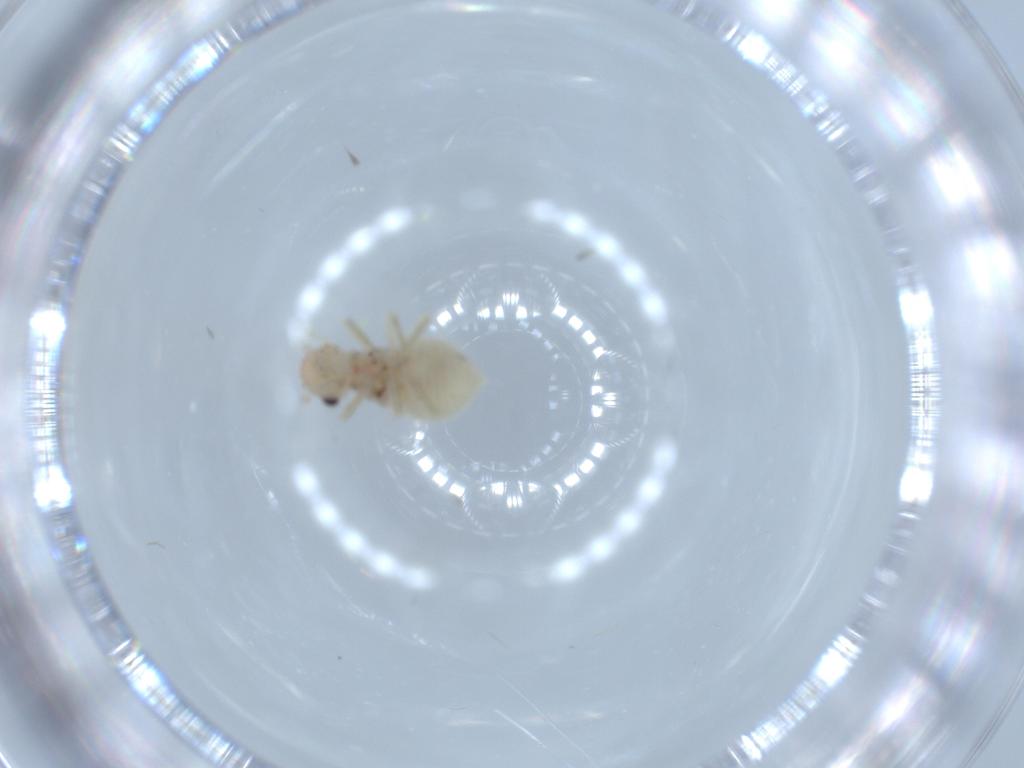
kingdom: Animalia
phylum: Arthropoda
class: Insecta
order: Psocodea
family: Amphipsocidae
